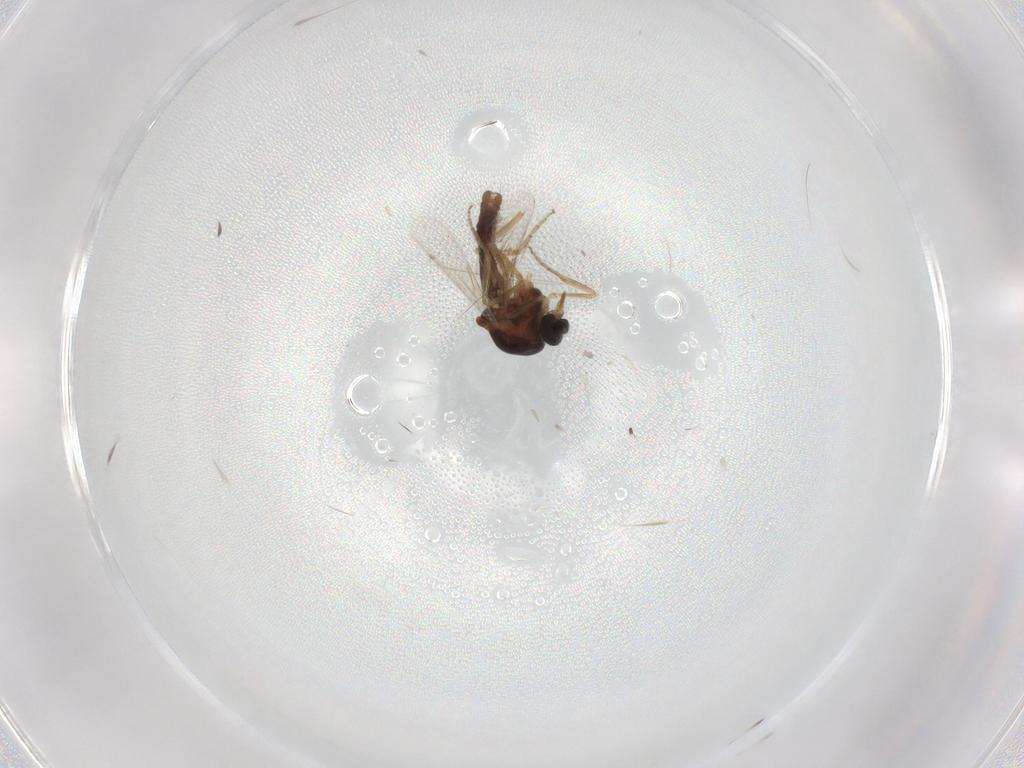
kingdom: Animalia
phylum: Arthropoda
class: Insecta
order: Diptera
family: Ceratopogonidae
